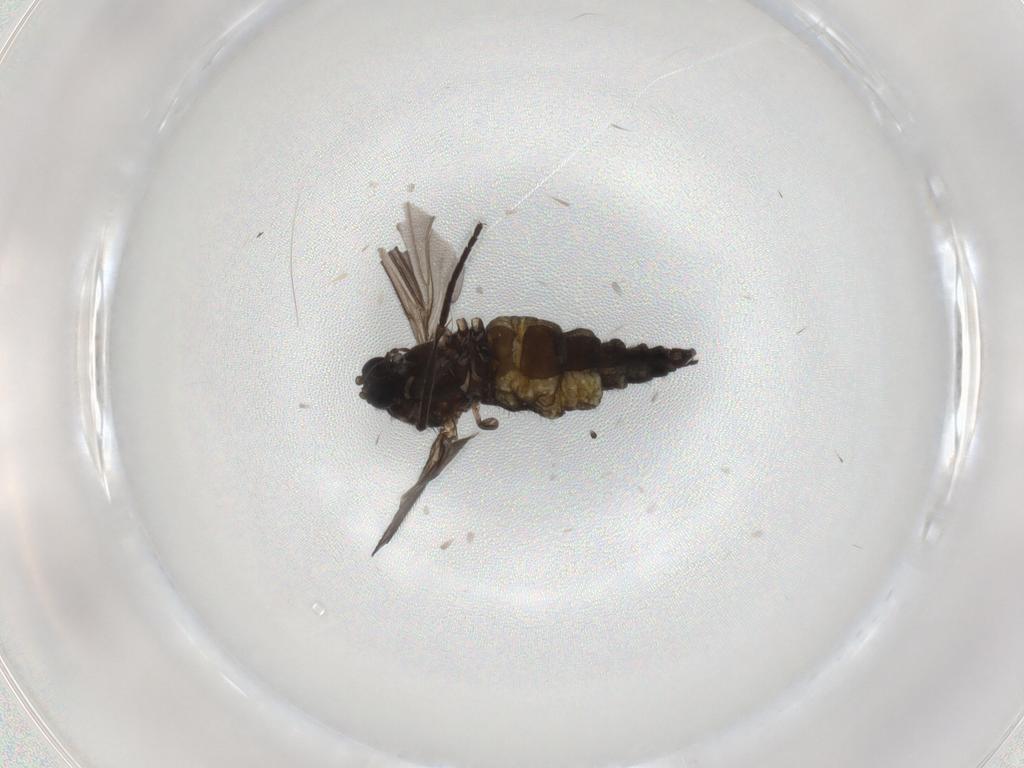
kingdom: Animalia
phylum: Arthropoda
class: Insecta
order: Diptera
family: Sciaridae
